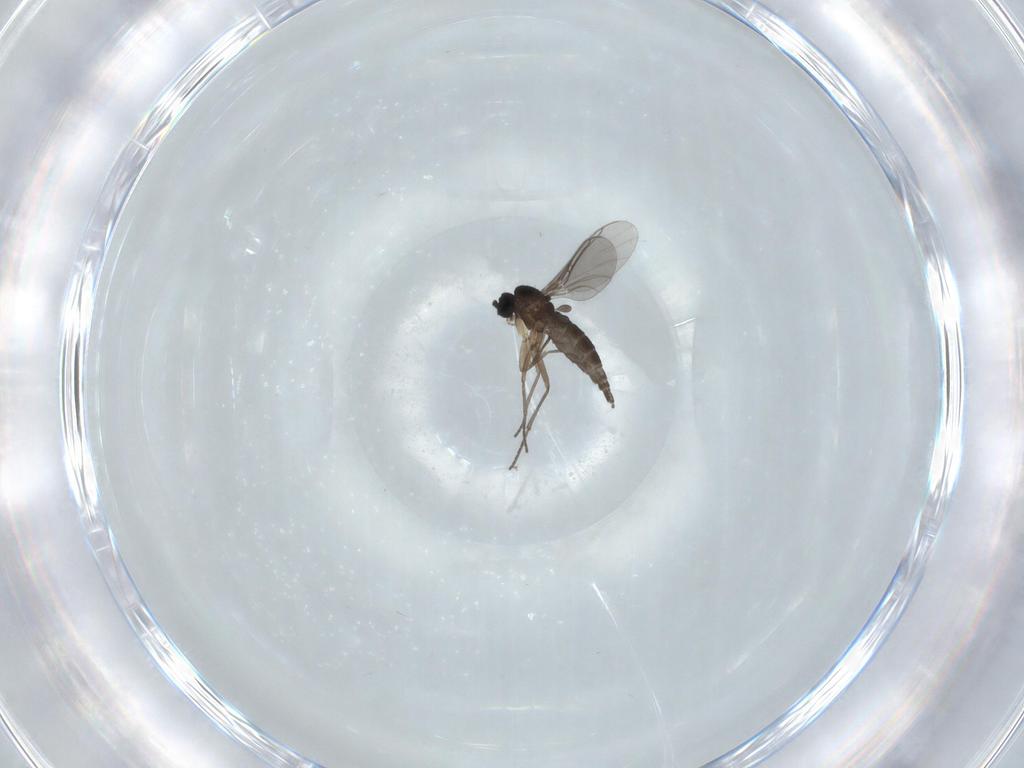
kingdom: Animalia
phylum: Arthropoda
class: Insecta
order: Diptera
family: Sciaridae
